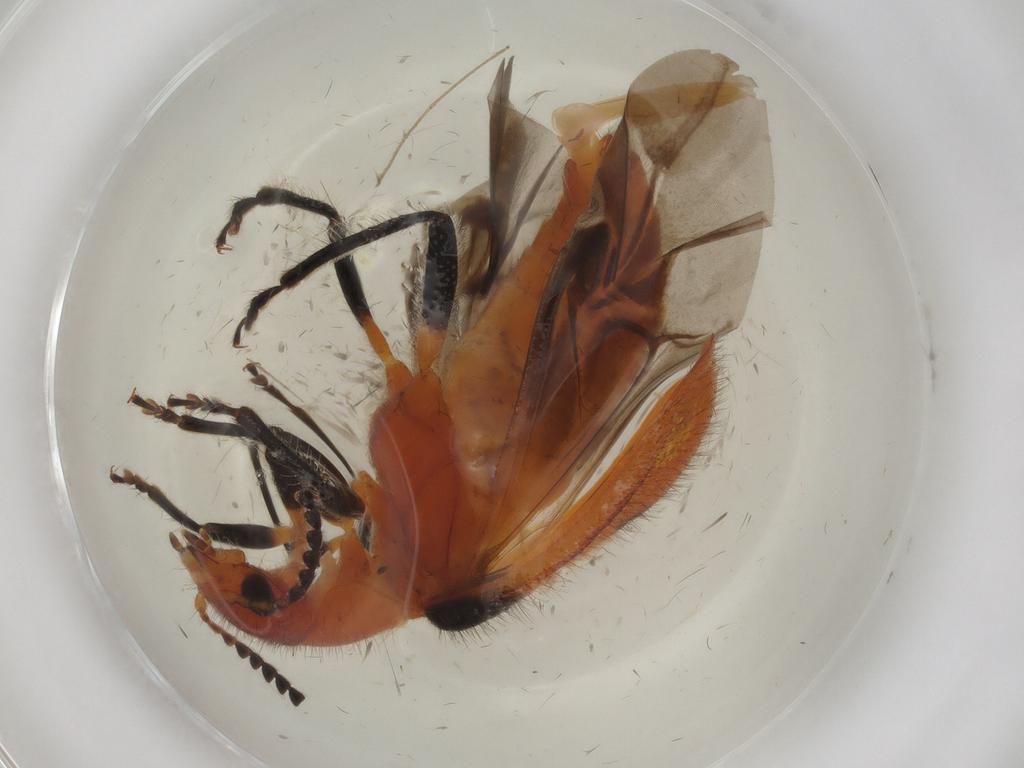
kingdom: Animalia
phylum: Arthropoda
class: Insecta
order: Coleoptera
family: Melyridae
